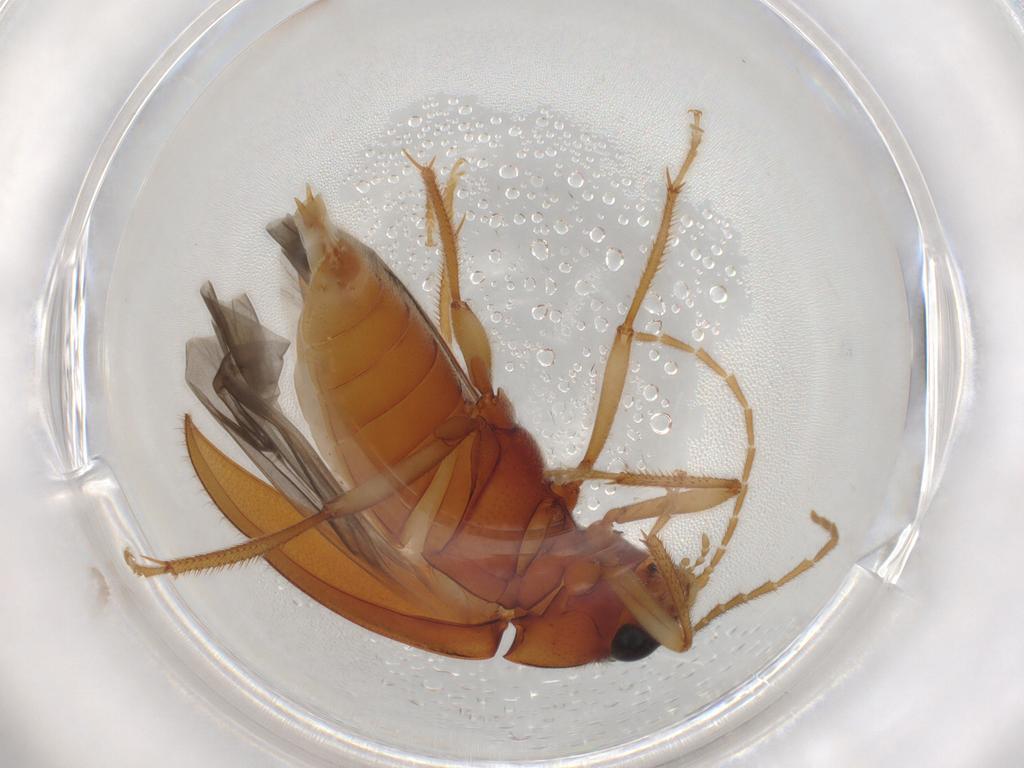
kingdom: Animalia
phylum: Arthropoda
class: Insecta
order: Coleoptera
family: Ptilodactylidae
